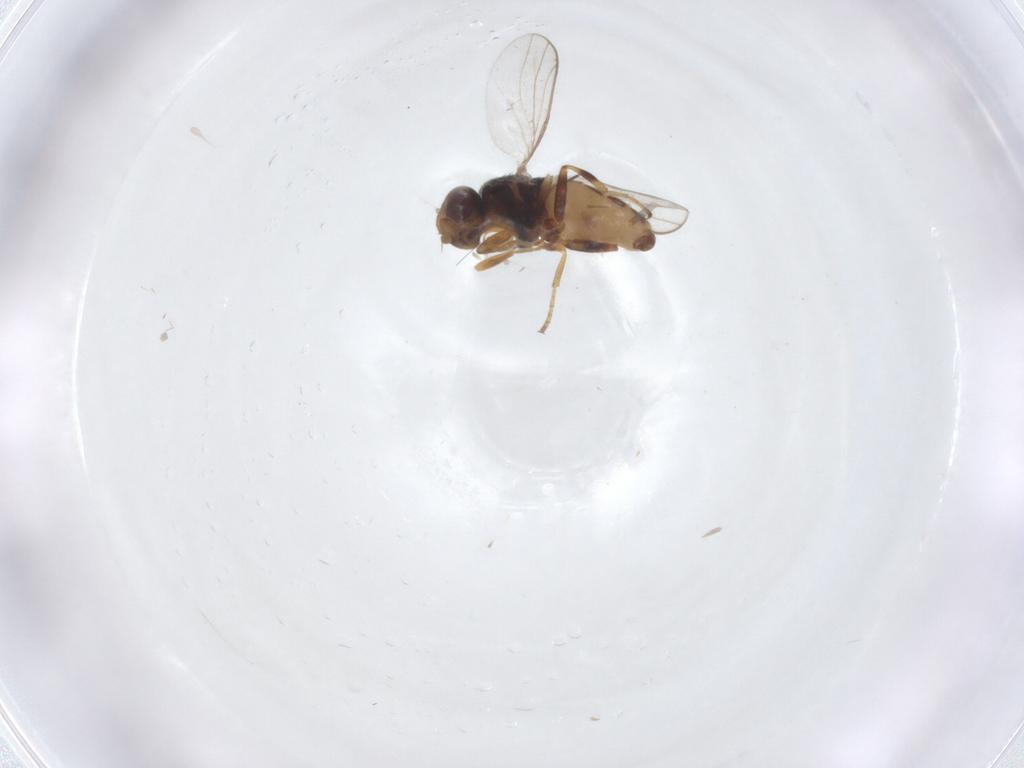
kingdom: Animalia
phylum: Arthropoda
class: Insecta
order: Diptera
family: Chloropidae
